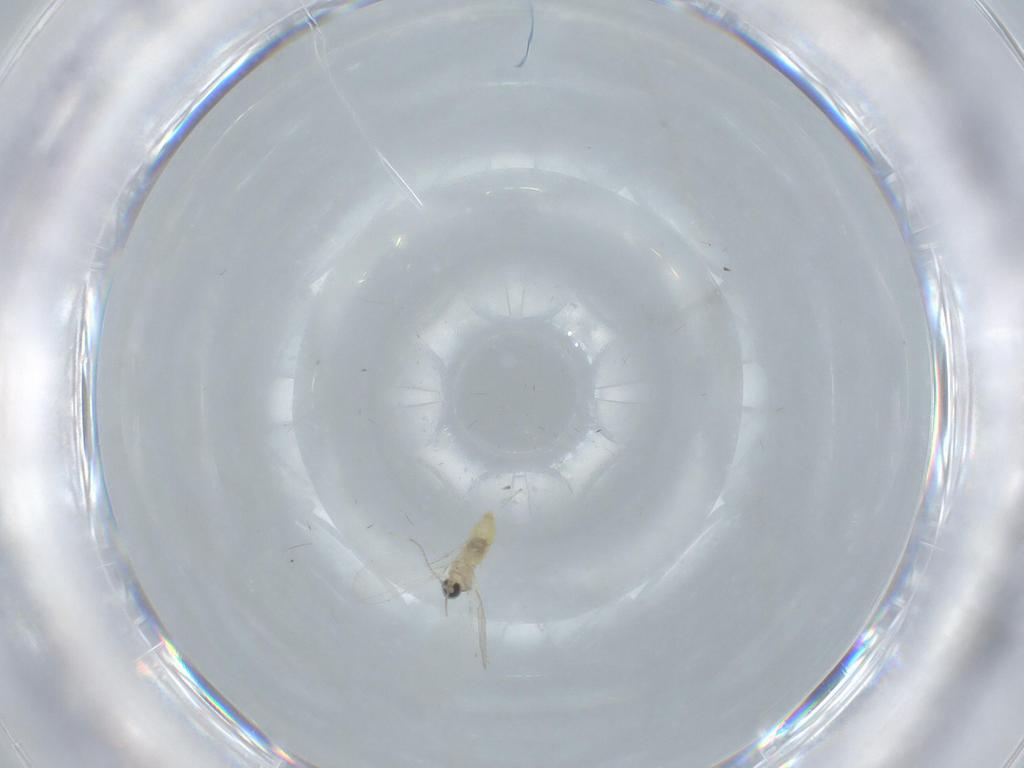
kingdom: Animalia
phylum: Arthropoda
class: Insecta
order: Diptera
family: Cecidomyiidae
